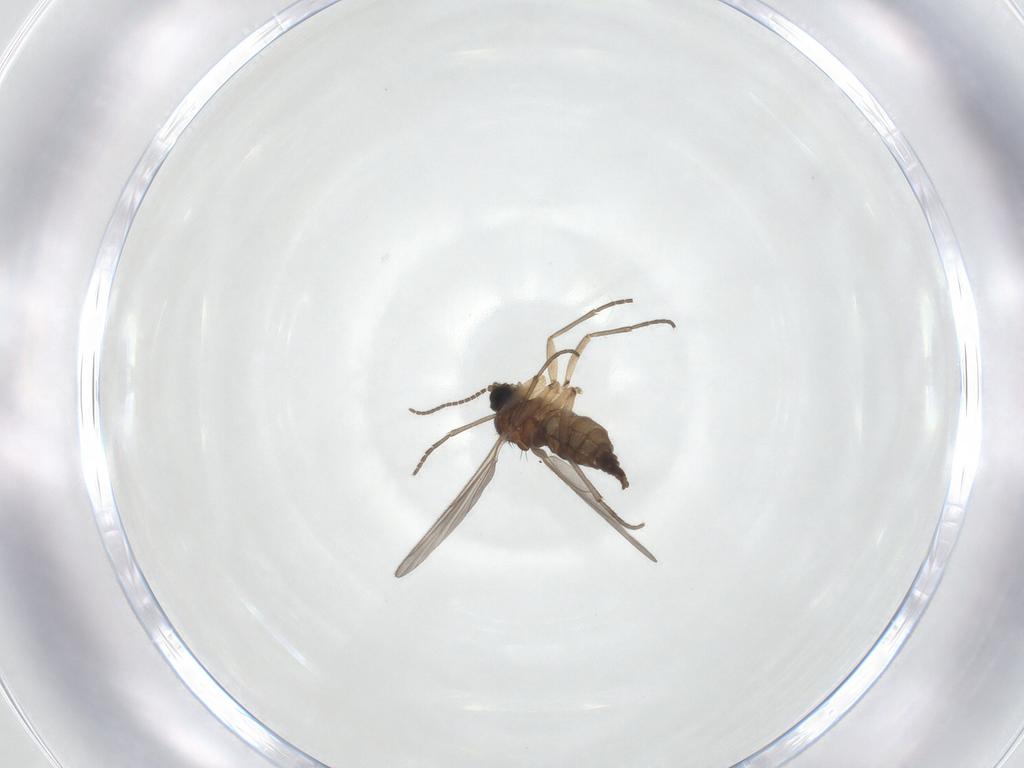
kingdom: Animalia
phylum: Arthropoda
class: Insecta
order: Diptera
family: Sciaridae
